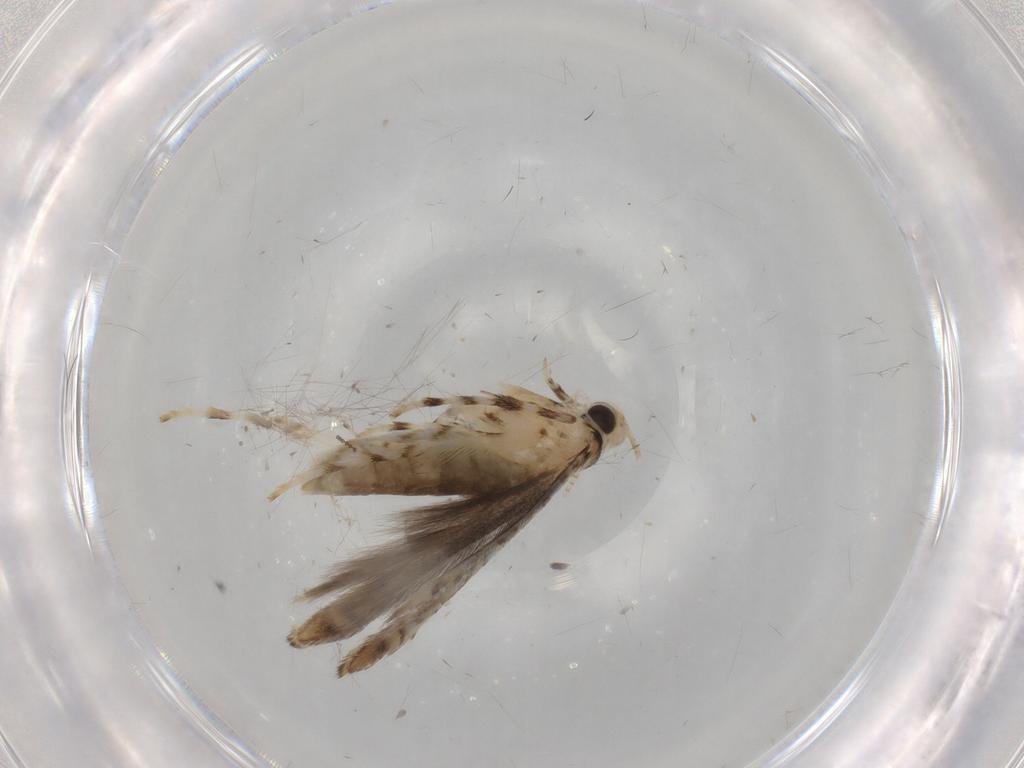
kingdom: Animalia
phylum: Arthropoda
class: Insecta
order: Lepidoptera
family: Gracillariidae
